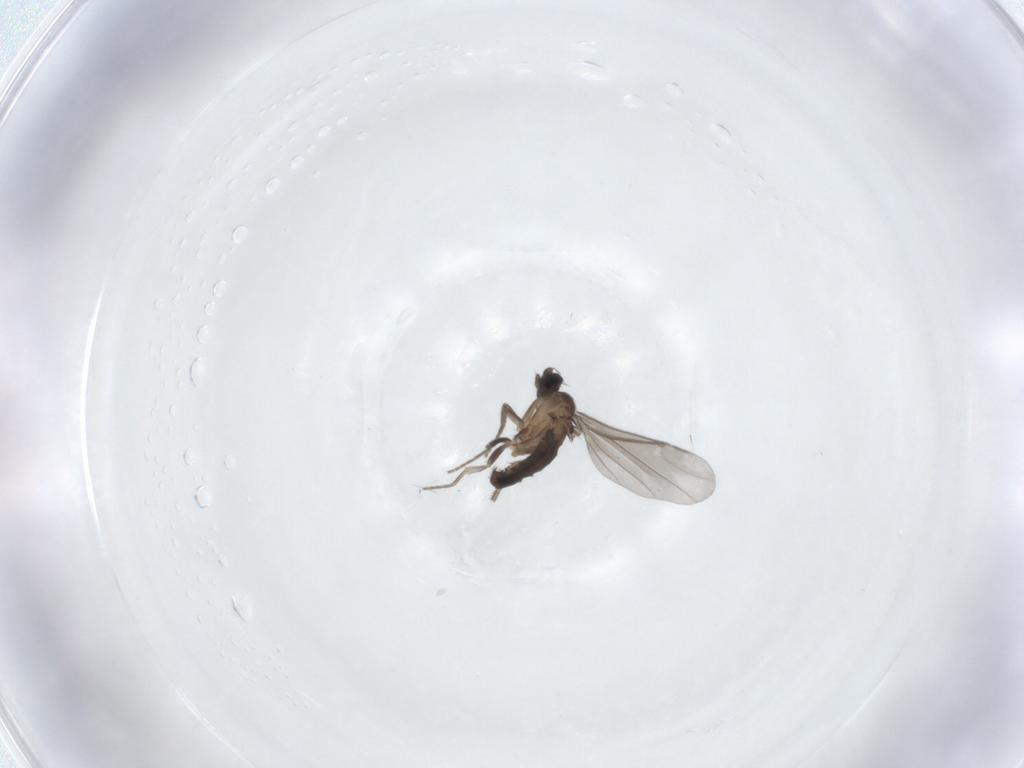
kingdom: Animalia
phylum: Arthropoda
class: Insecta
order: Diptera
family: Phoridae
